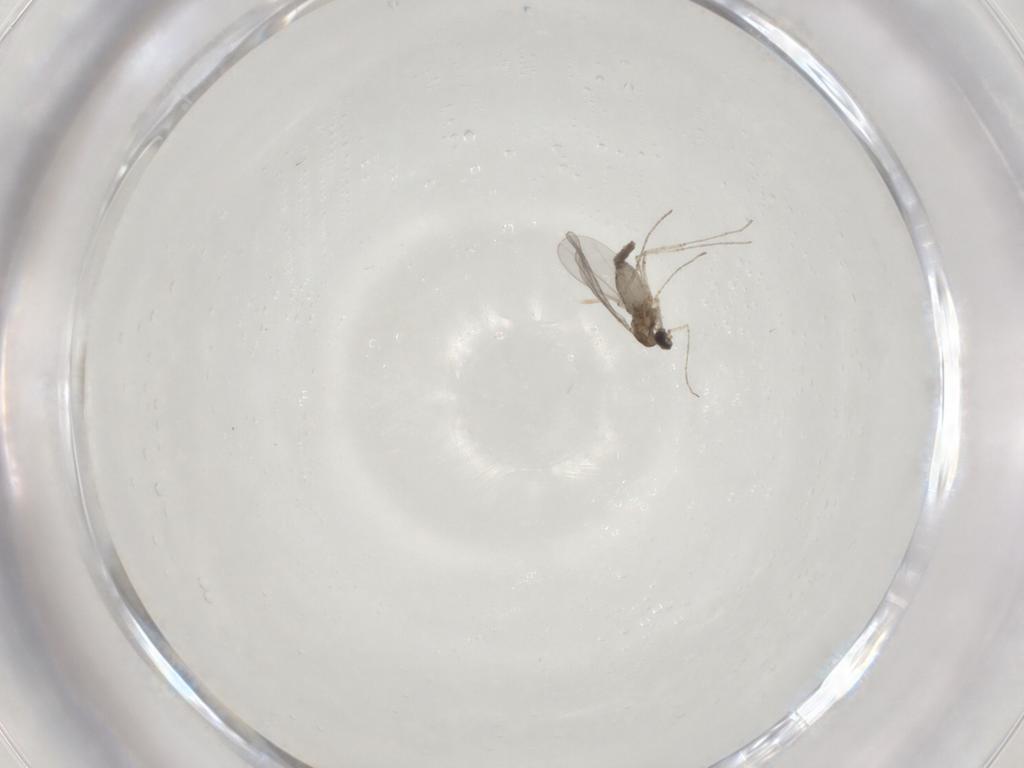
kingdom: Animalia
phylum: Arthropoda
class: Insecta
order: Diptera
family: Cecidomyiidae
